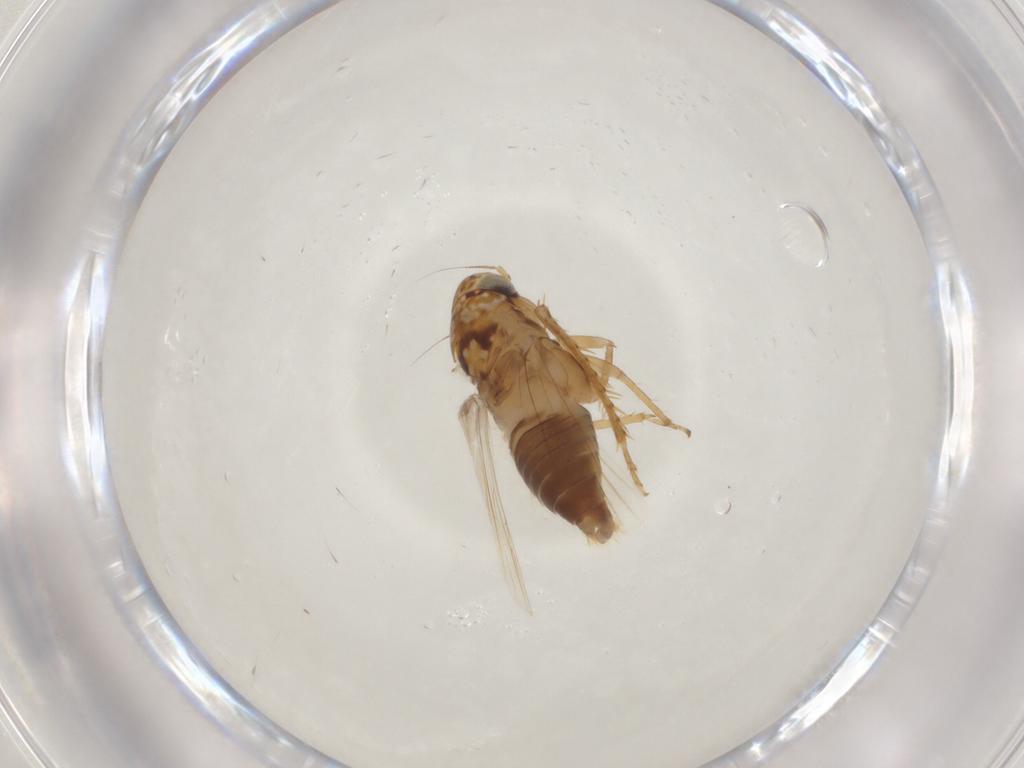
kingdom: Animalia
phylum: Arthropoda
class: Insecta
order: Hemiptera
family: Cicadellidae
